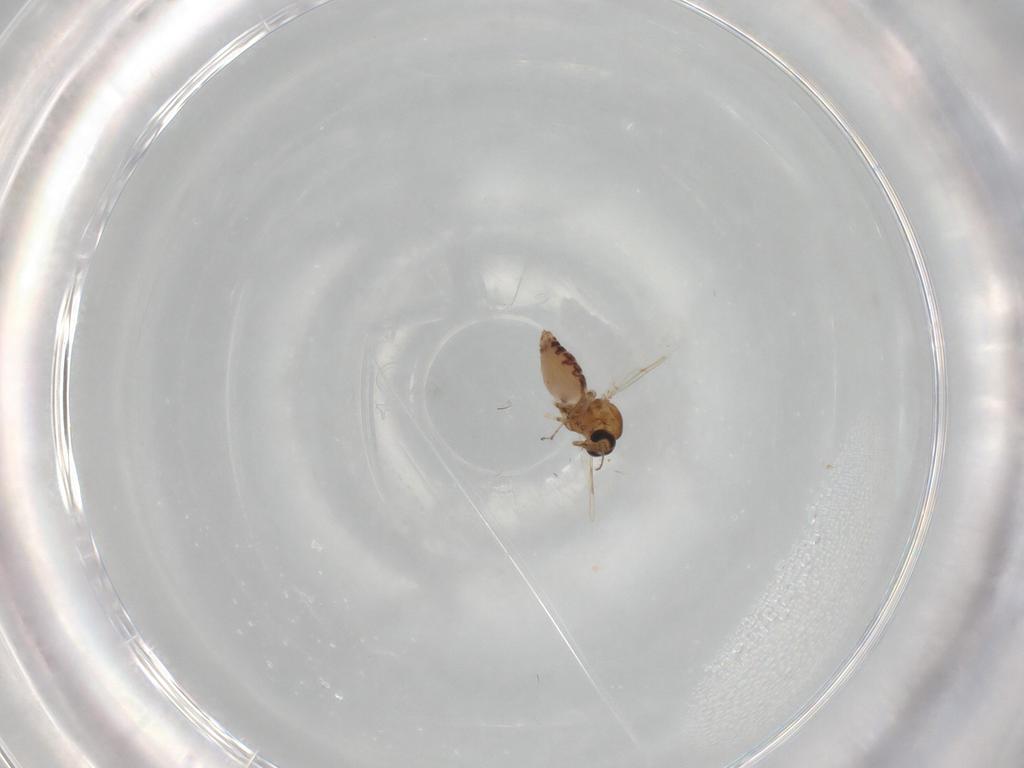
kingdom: Animalia
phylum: Arthropoda
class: Insecta
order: Diptera
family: Ceratopogonidae
